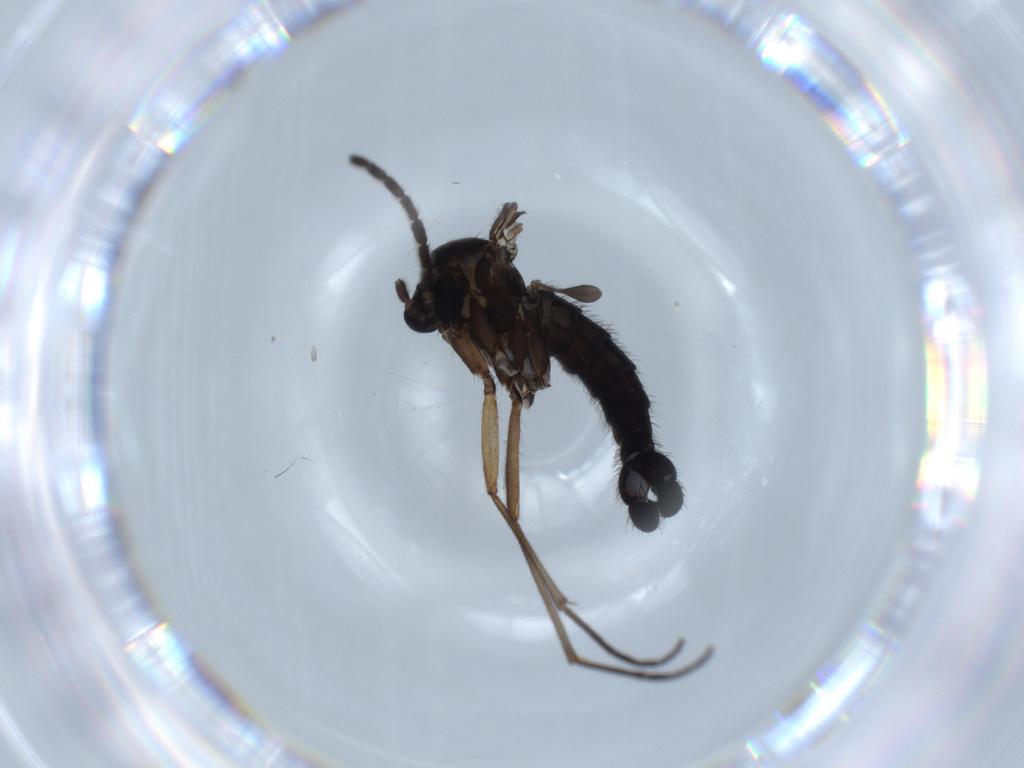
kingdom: Animalia
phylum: Arthropoda
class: Insecta
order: Diptera
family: Sciaridae
